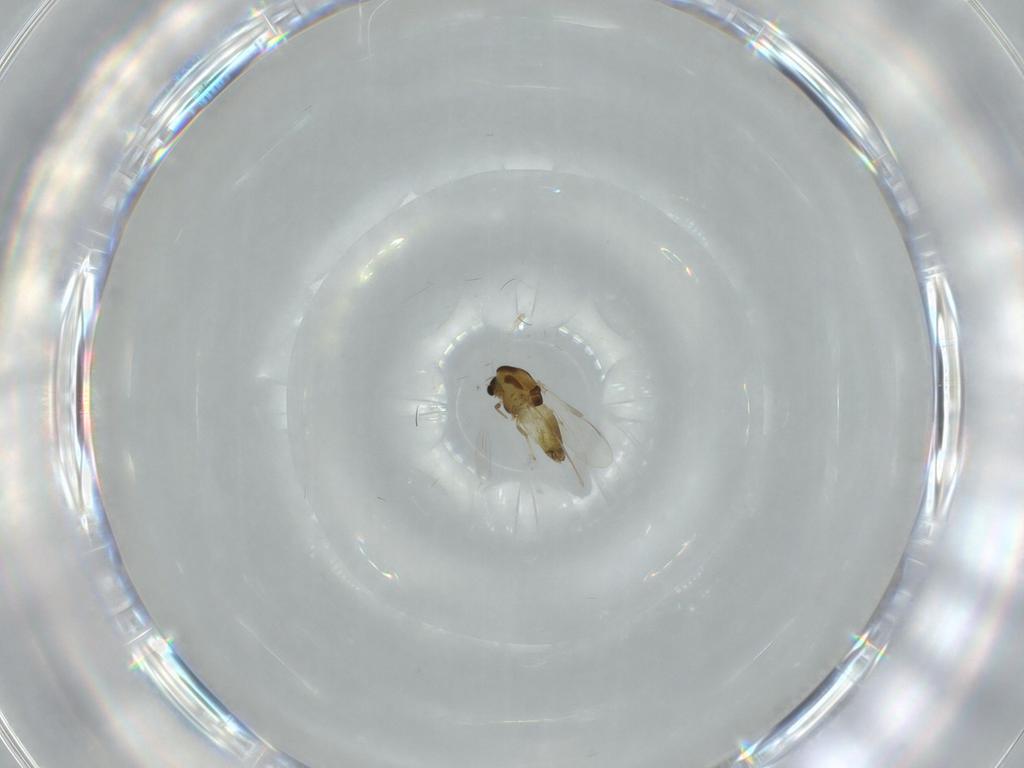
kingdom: Animalia
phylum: Arthropoda
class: Insecta
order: Diptera
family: Chironomidae
